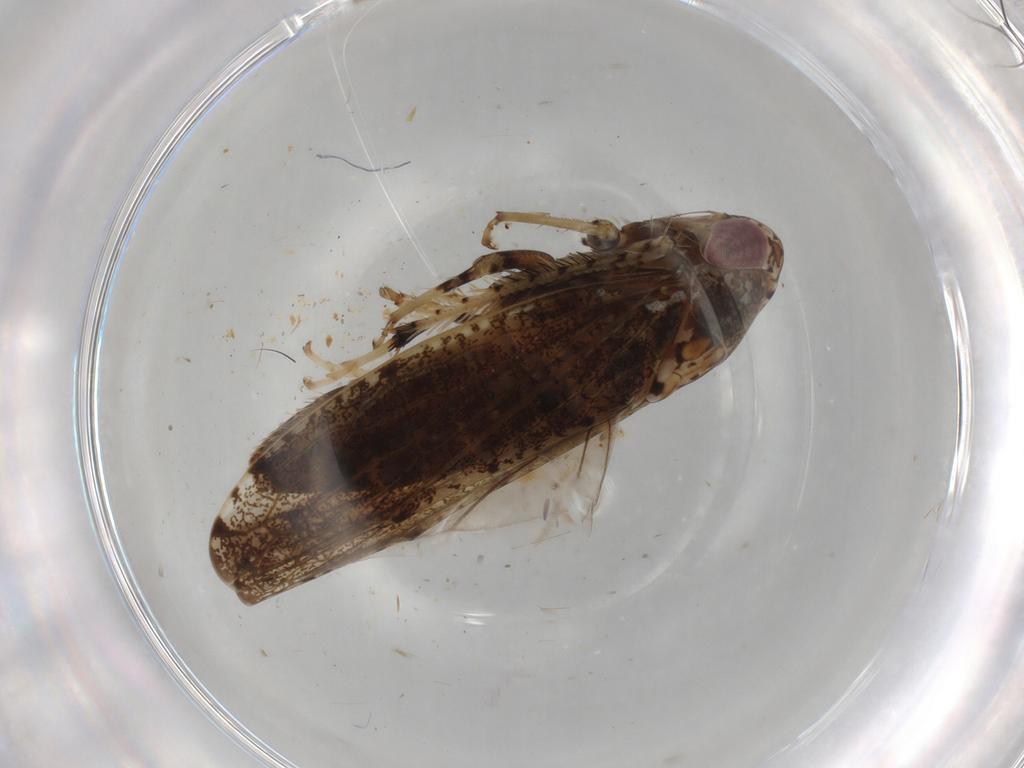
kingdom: Animalia
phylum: Arthropoda
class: Insecta
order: Hemiptera
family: Cicadellidae
